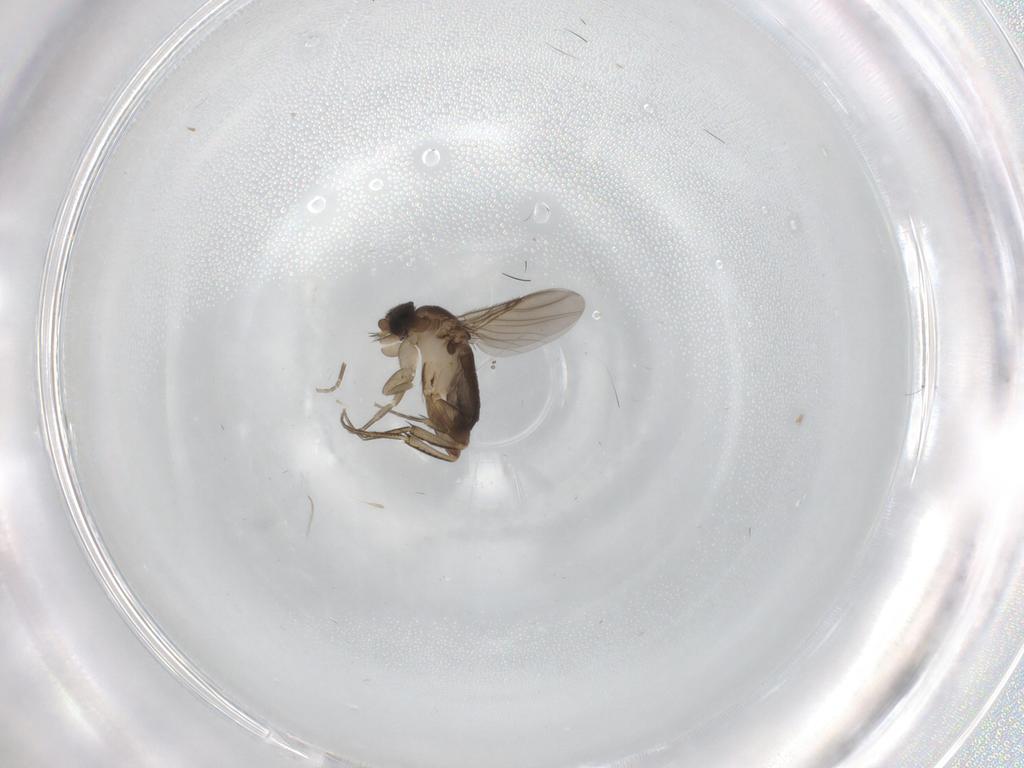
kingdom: Animalia
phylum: Arthropoda
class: Insecta
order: Diptera
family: Phoridae
